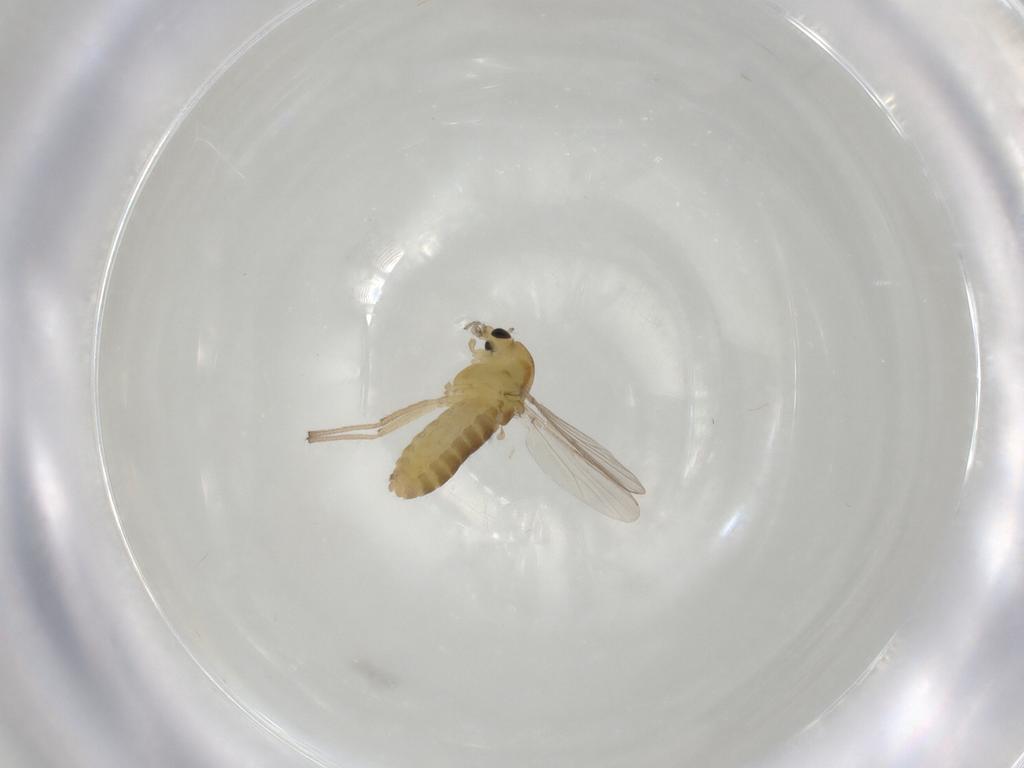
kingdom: Animalia
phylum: Arthropoda
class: Insecta
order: Diptera
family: Chironomidae
